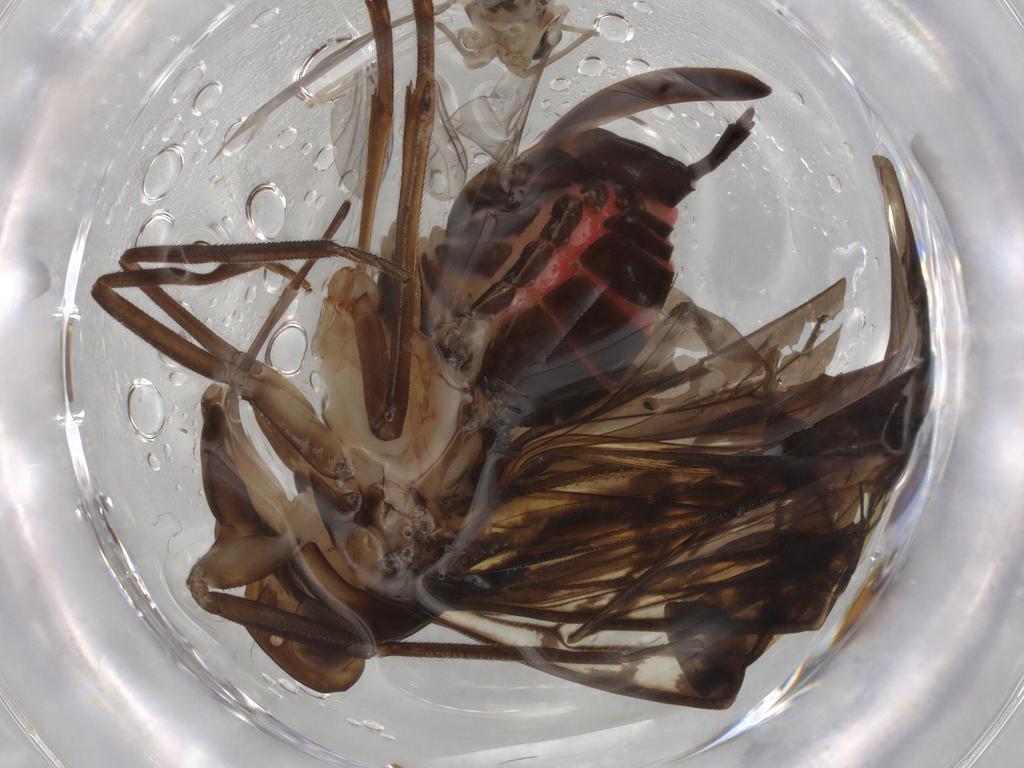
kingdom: Animalia
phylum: Arthropoda
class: Insecta
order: Hemiptera
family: Cixiidae
